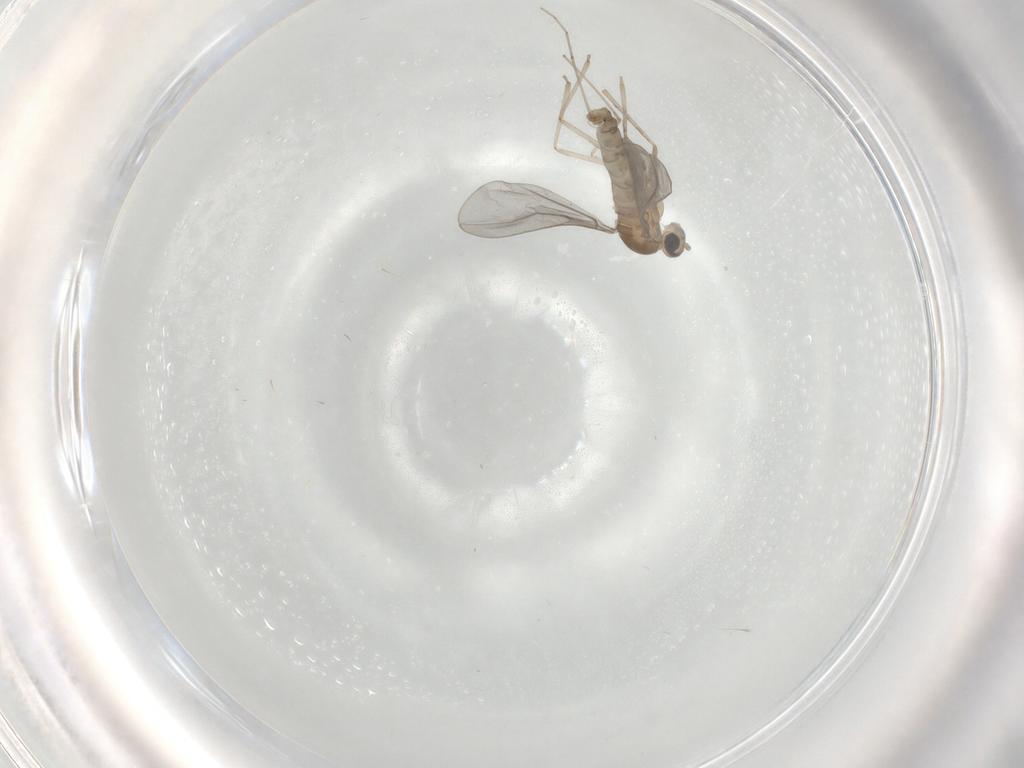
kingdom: Animalia
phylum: Arthropoda
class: Insecta
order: Diptera
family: Cecidomyiidae
